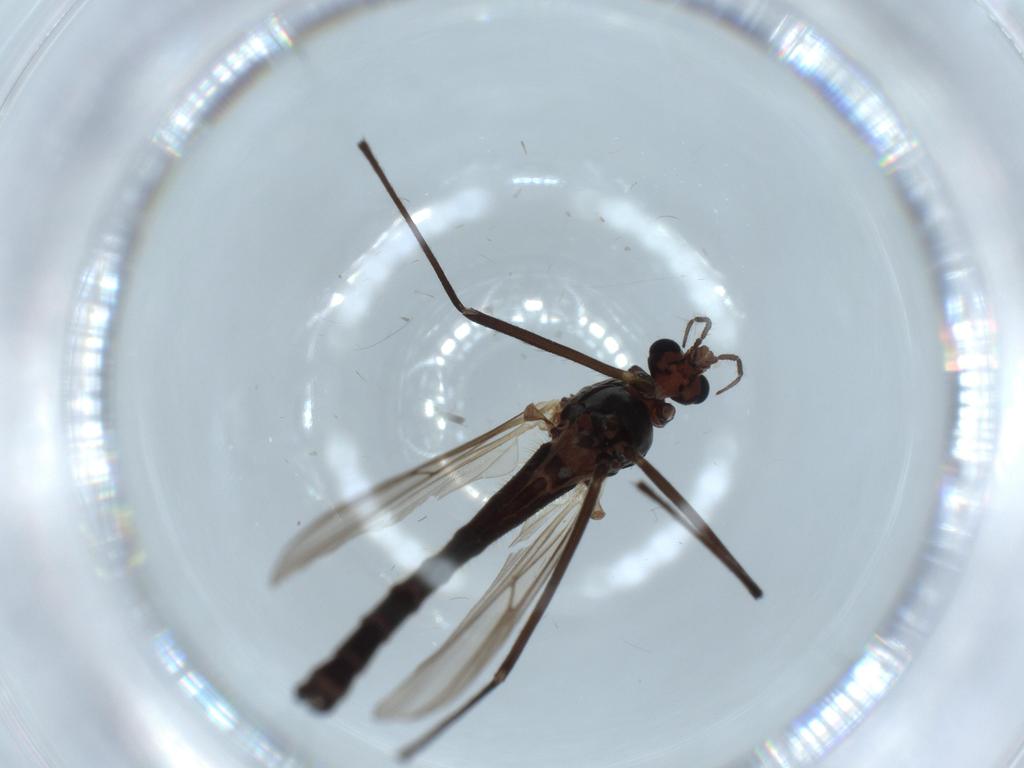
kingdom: Animalia
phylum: Arthropoda
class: Insecta
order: Diptera
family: Chironomidae
